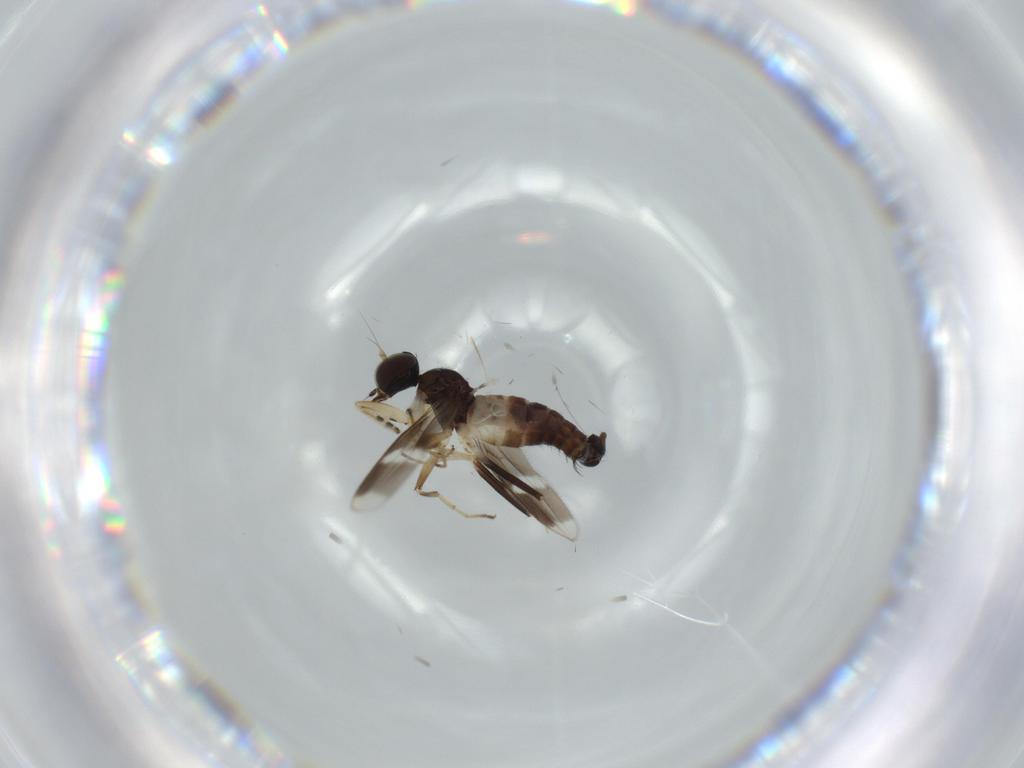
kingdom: Animalia
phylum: Arthropoda
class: Insecta
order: Diptera
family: Hybotidae
